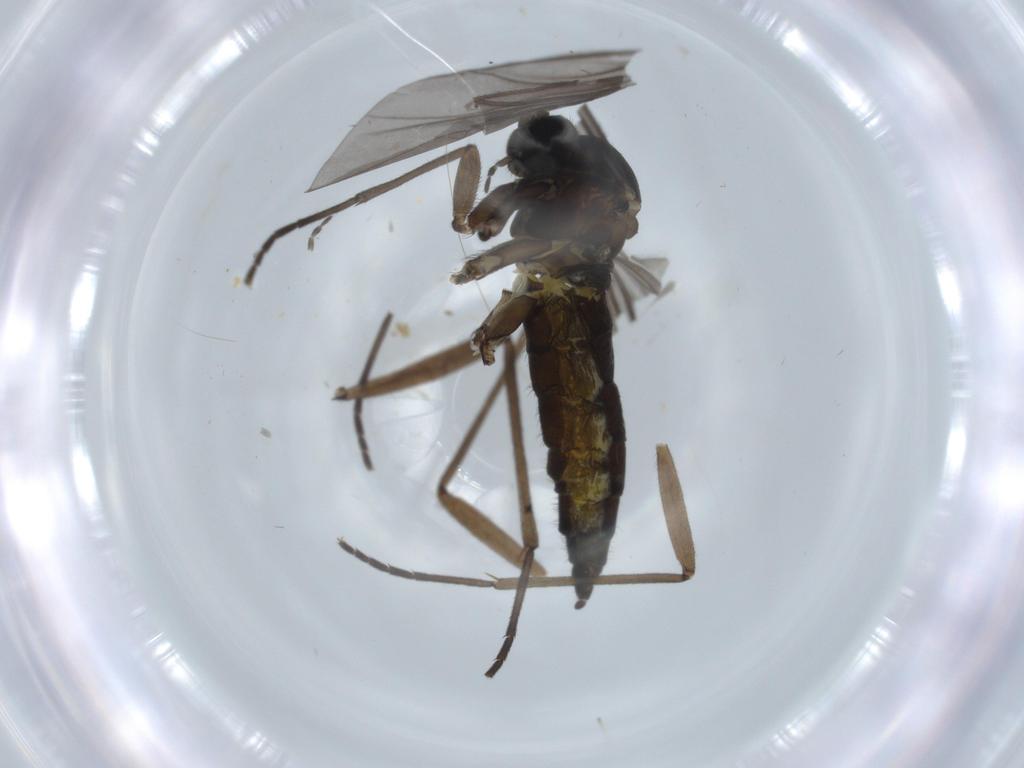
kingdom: Animalia
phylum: Arthropoda
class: Insecta
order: Diptera
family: Sciaridae
